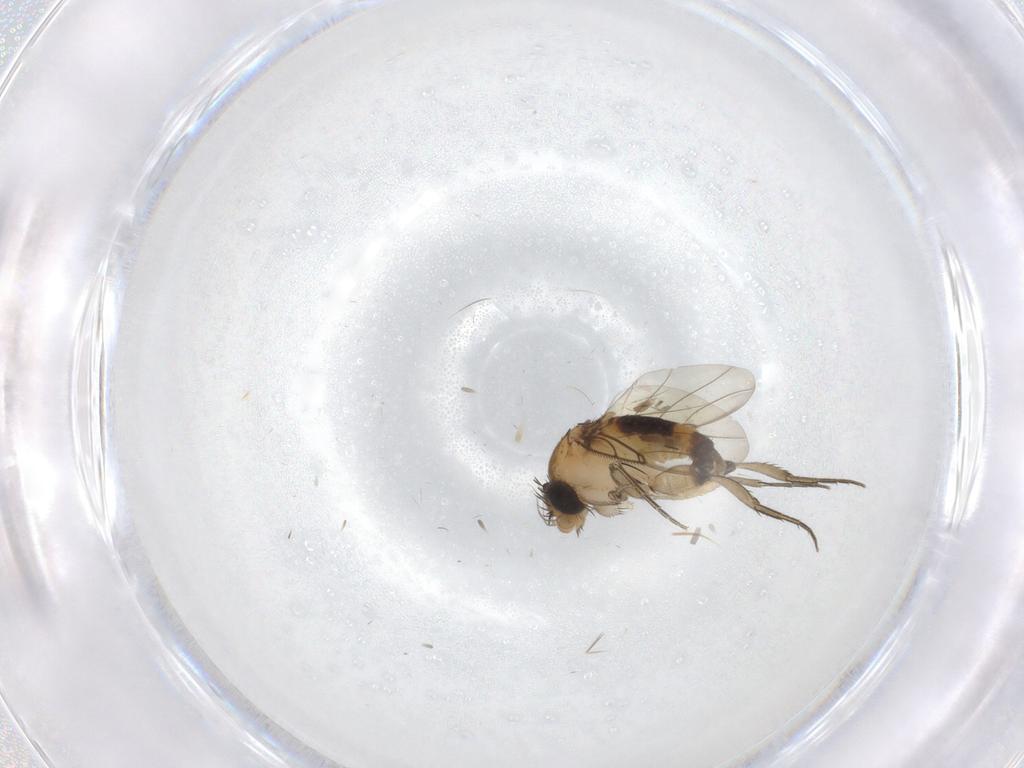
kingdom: Animalia
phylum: Arthropoda
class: Insecta
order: Diptera
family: Phoridae
